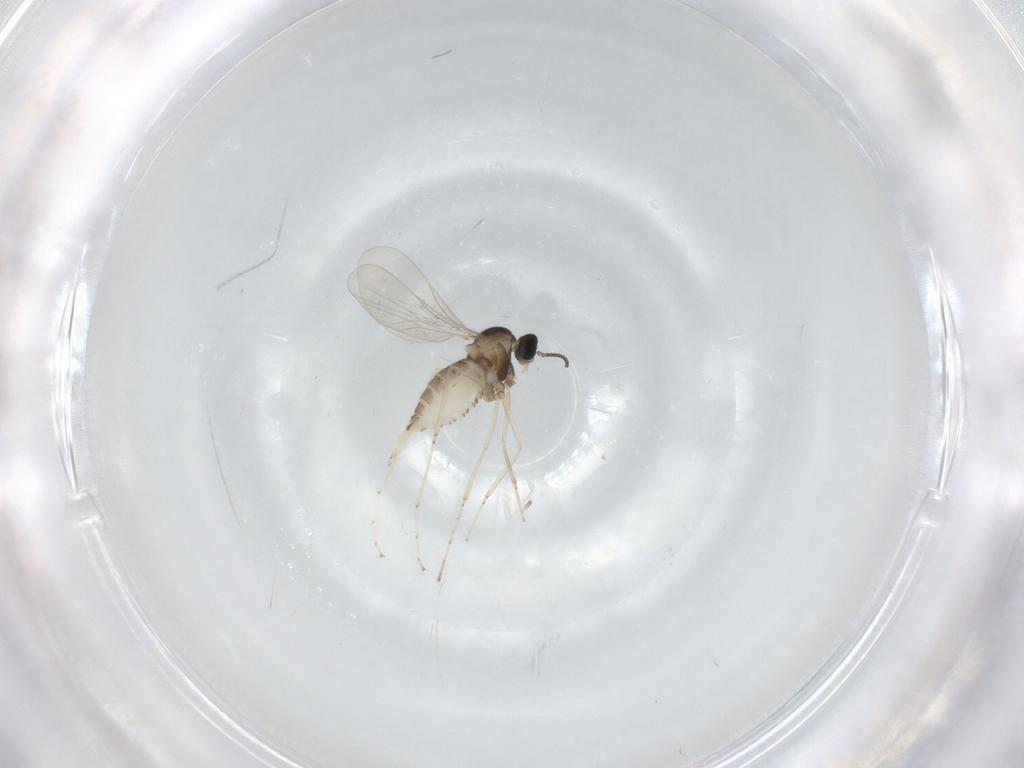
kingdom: Animalia
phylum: Arthropoda
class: Insecta
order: Diptera
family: Cecidomyiidae
